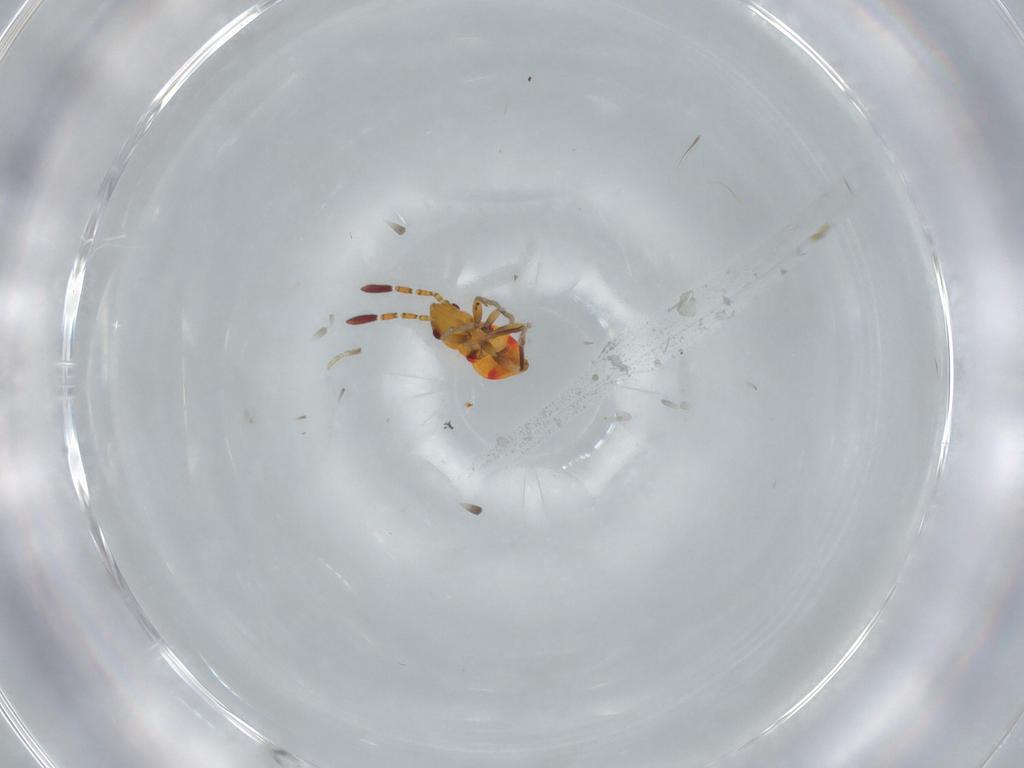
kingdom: Animalia
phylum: Arthropoda
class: Insecta
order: Hemiptera
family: Rhyparochromidae
